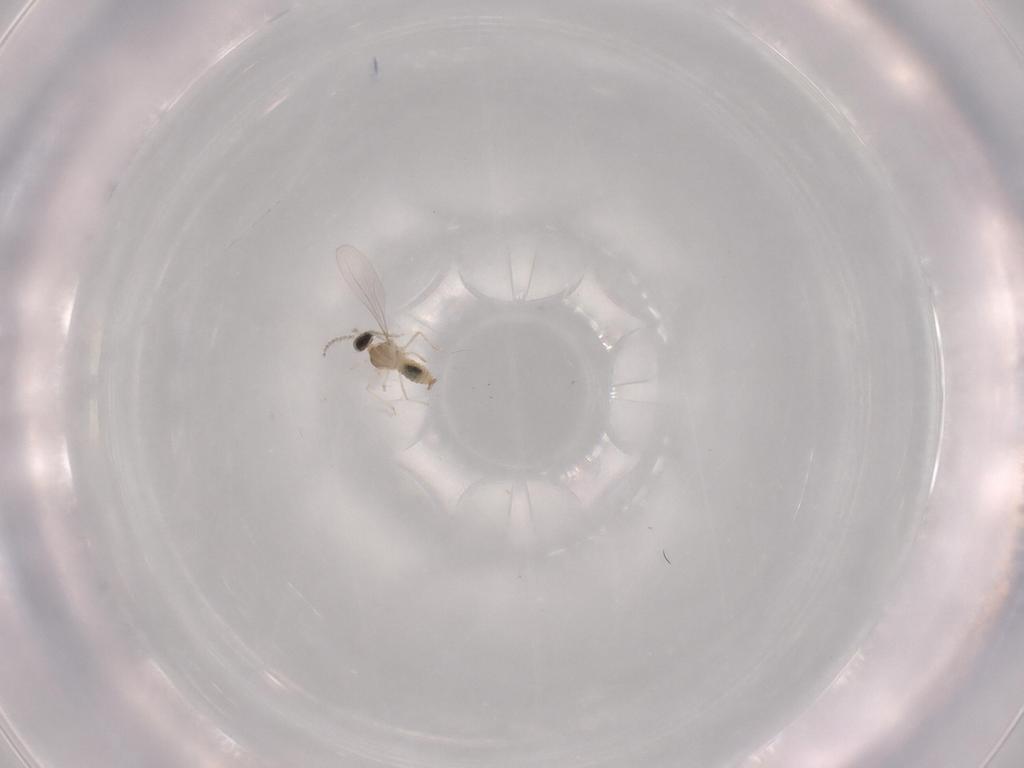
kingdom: Animalia
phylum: Arthropoda
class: Insecta
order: Diptera
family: Cecidomyiidae
